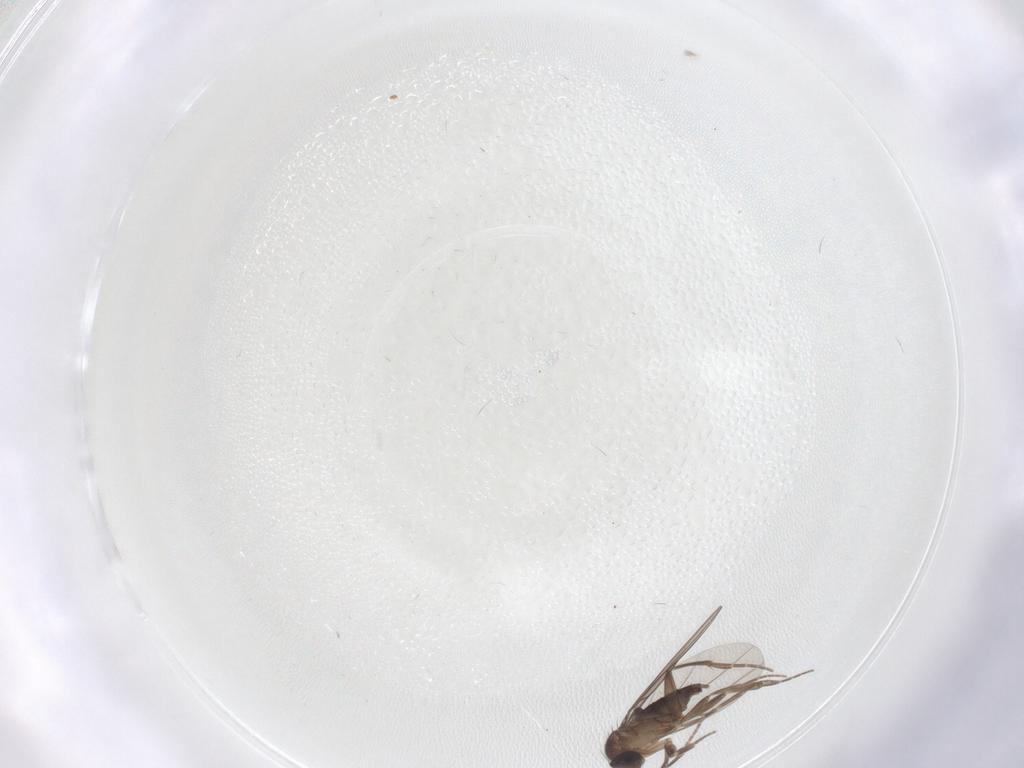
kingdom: Animalia
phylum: Arthropoda
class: Insecta
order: Diptera
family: Phoridae
